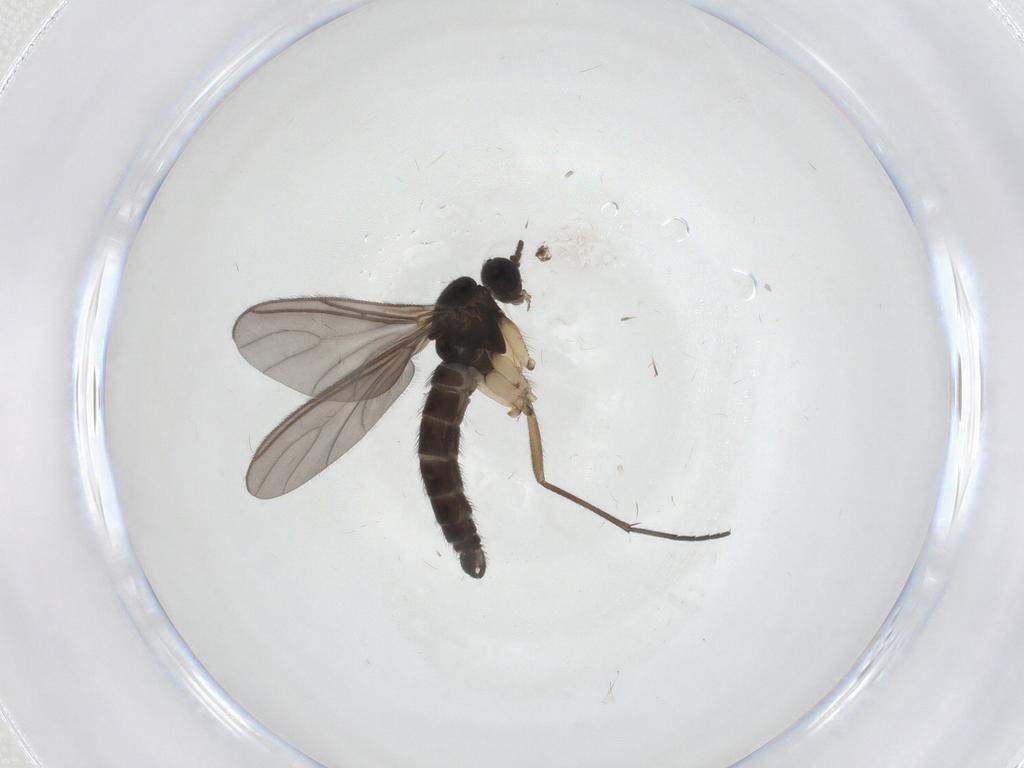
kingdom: Animalia
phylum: Arthropoda
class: Insecta
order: Diptera
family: Sciaridae
